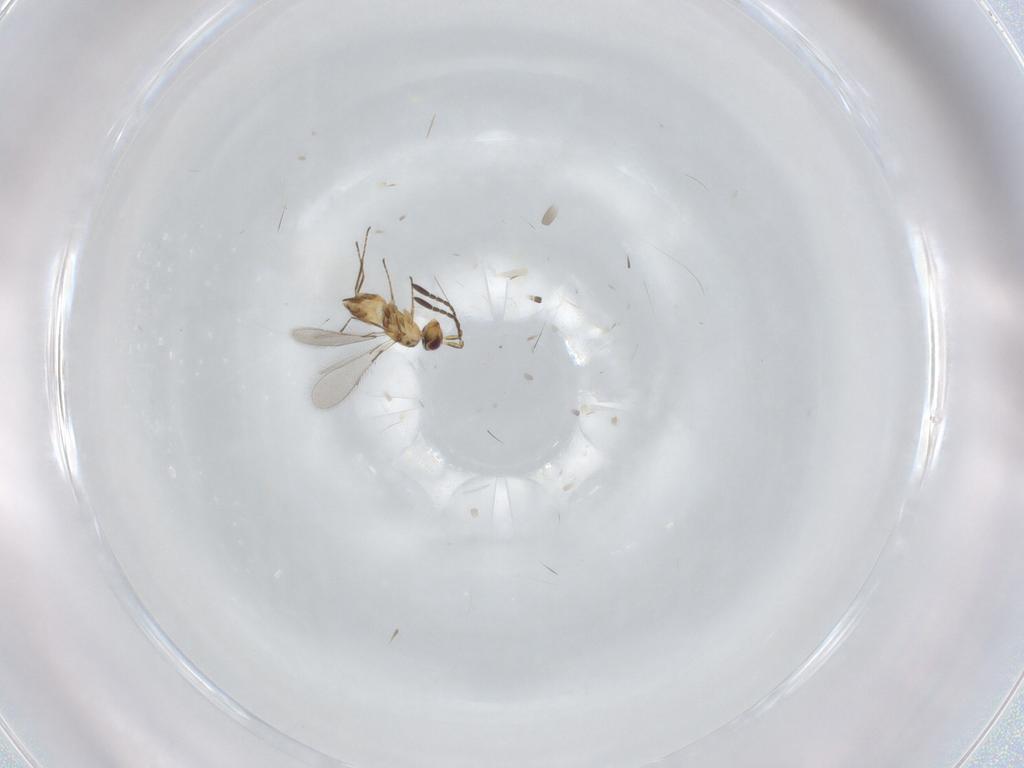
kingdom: Animalia
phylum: Arthropoda
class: Insecta
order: Hymenoptera
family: Mymaridae
